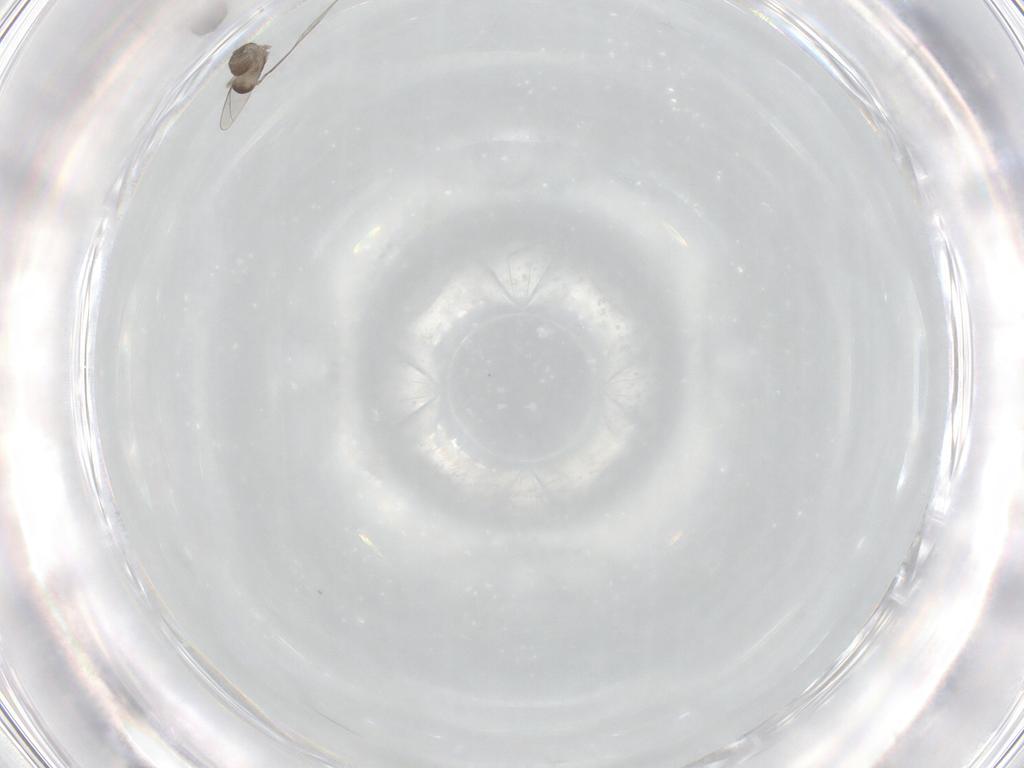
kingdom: Animalia
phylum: Arthropoda
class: Insecta
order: Diptera
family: Cecidomyiidae
